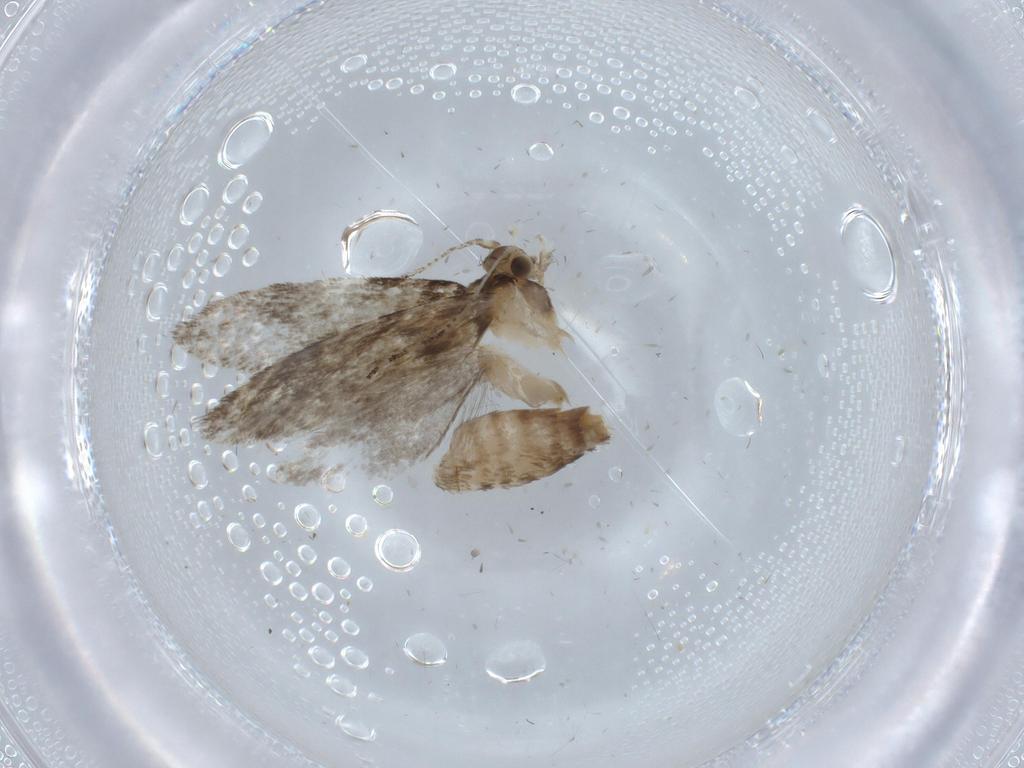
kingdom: Animalia
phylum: Arthropoda
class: Insecta
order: Lepidoptera
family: Tineidae
